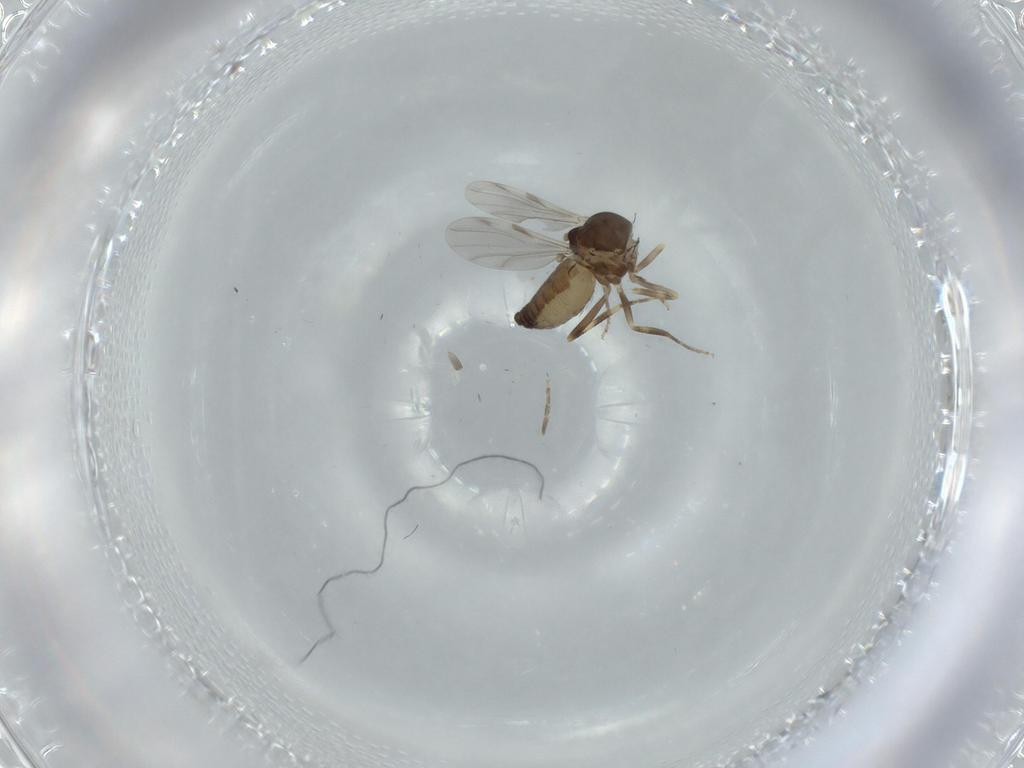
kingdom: Animalia
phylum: Arthropoda
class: Insecta
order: Diptera
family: Ceratopogonidae
